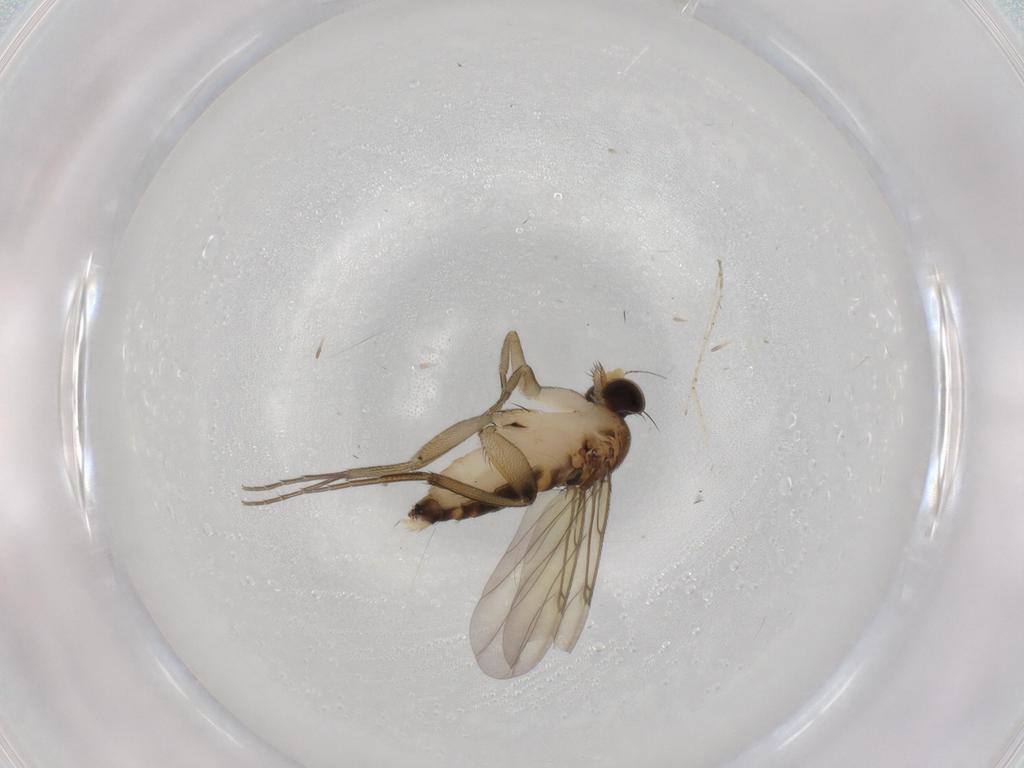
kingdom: Animalia
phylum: Arthropoda
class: Insecta
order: Diptera
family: Phoridae
